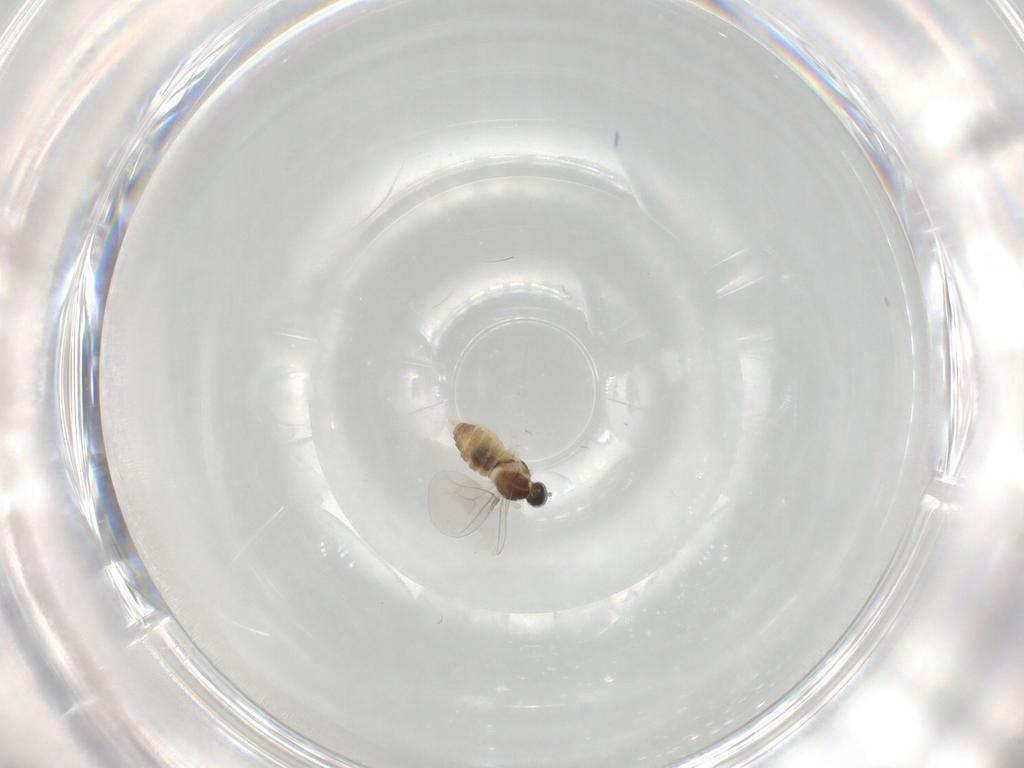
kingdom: Animalia
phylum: Arthropoda
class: Insecta
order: Diptera
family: Cecidomyiidae
